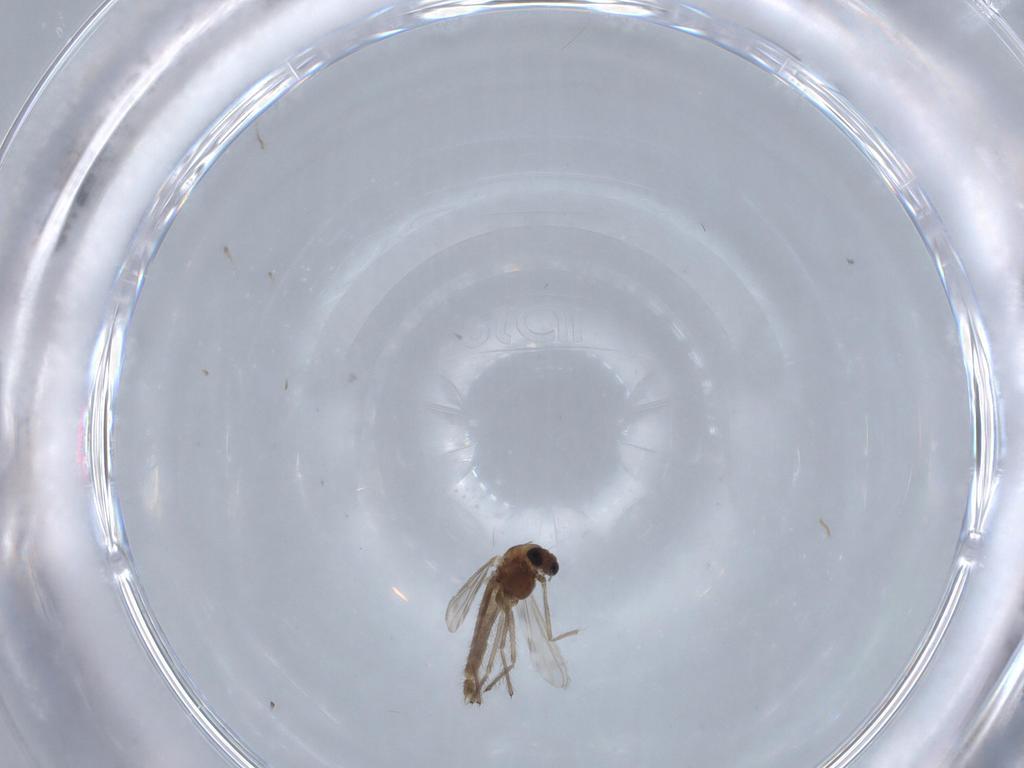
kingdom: Animalia
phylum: Arthropoda
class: Insecta
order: Diptera
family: Chironomidae
